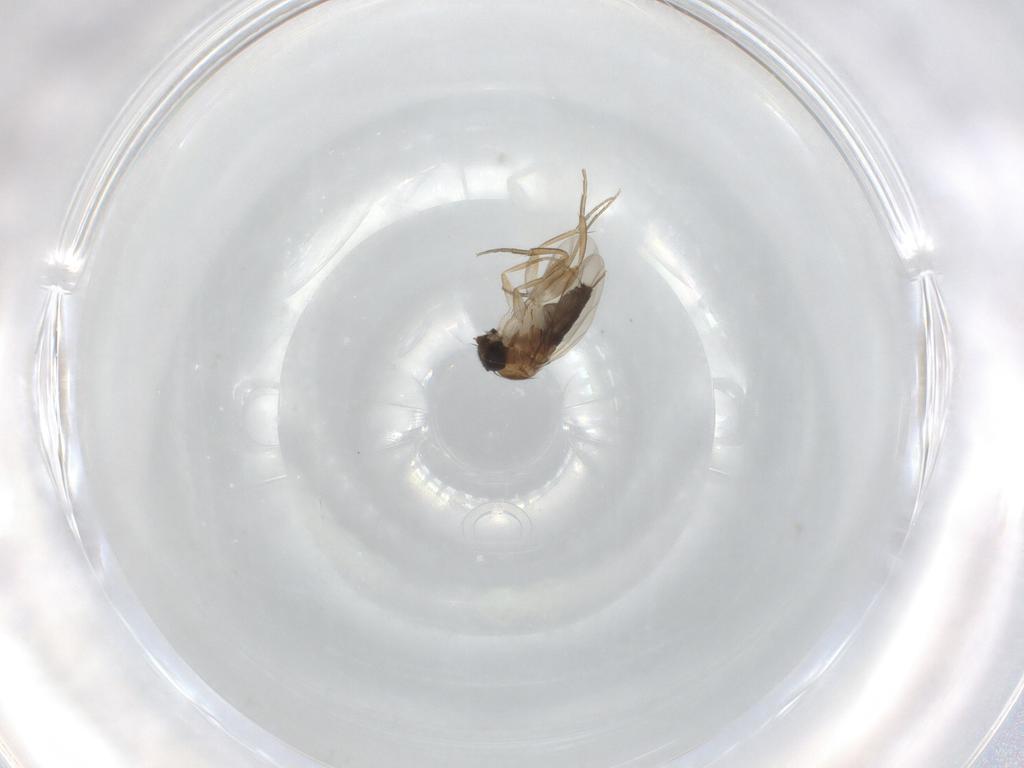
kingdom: Animalia
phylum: Arthropoda
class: Insecta
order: Diptera
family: Phoridae
